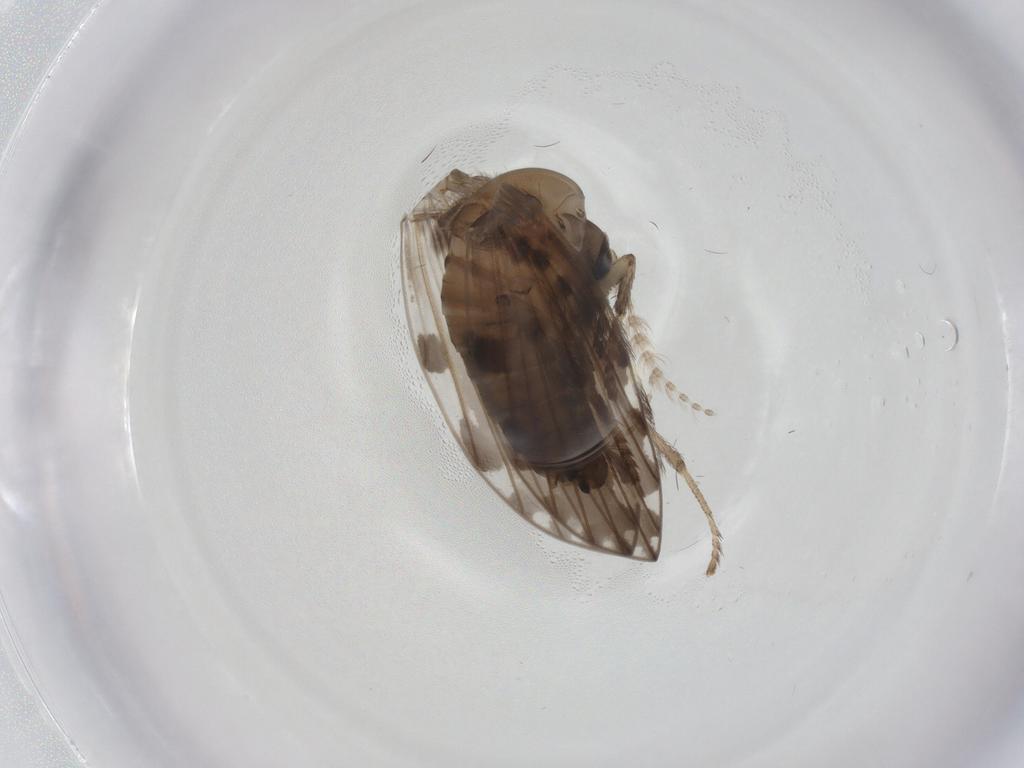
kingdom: Animalia
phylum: Arthropoda
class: Insecta
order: Diptera
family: Psychodidae
